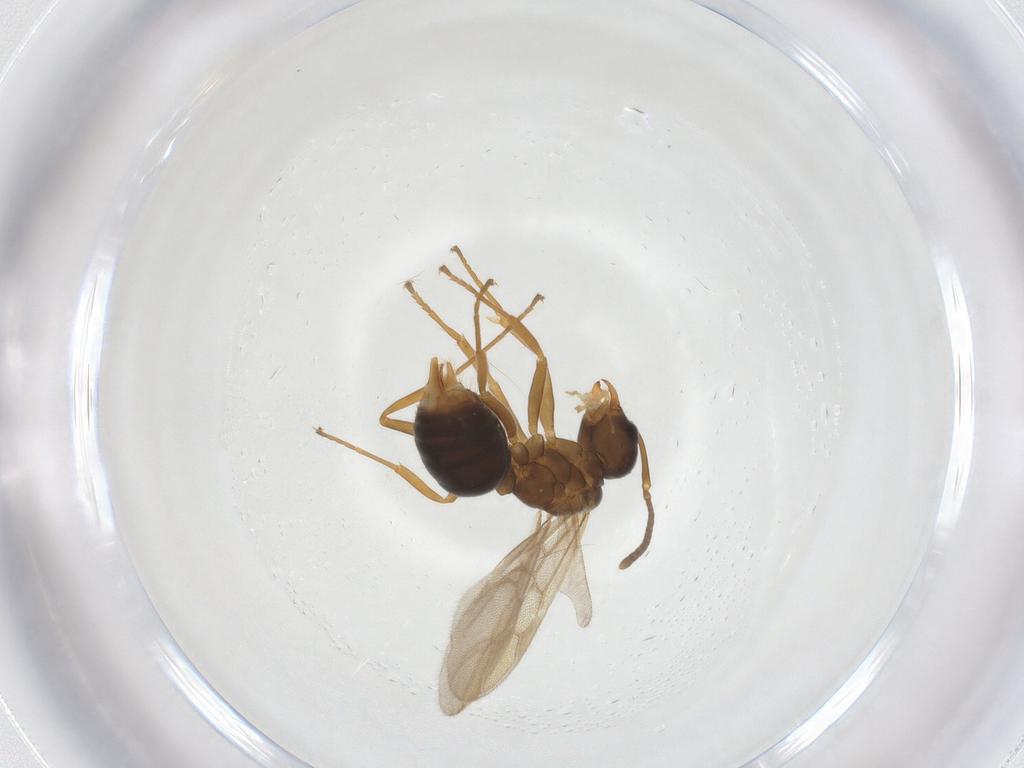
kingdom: Animalia
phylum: Arthropoda
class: Insecta
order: Hymenoptera
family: Formicidae
